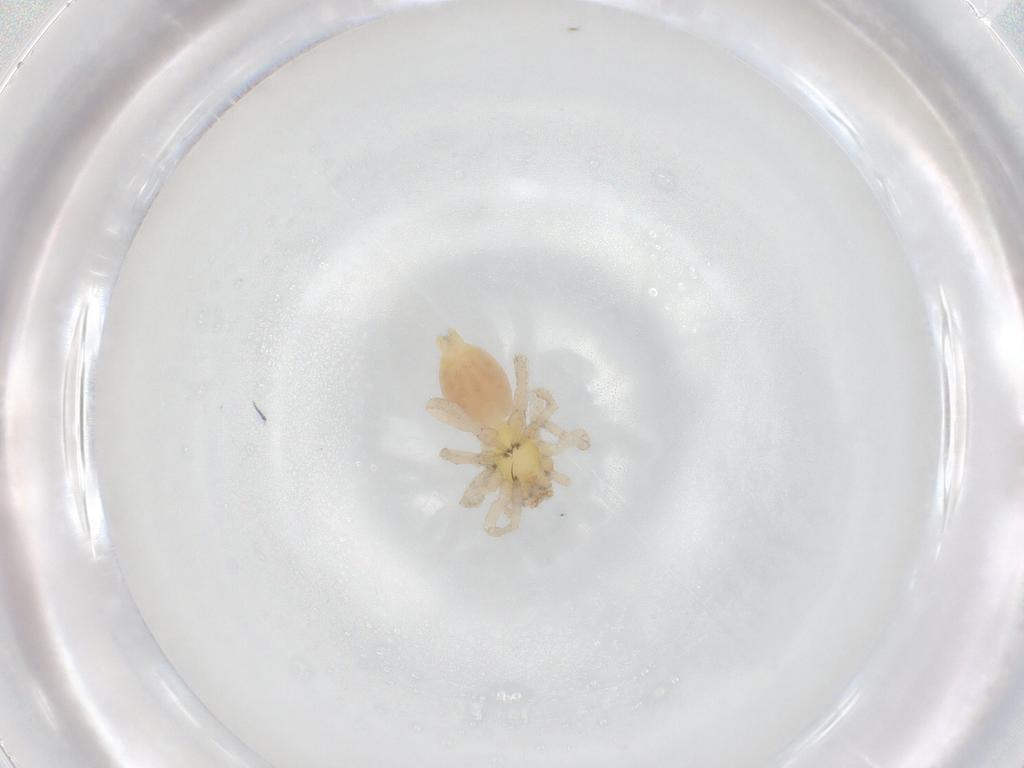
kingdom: Animalia
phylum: Arthropoda
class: Arachnida
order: Araneae
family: Clubionidae
